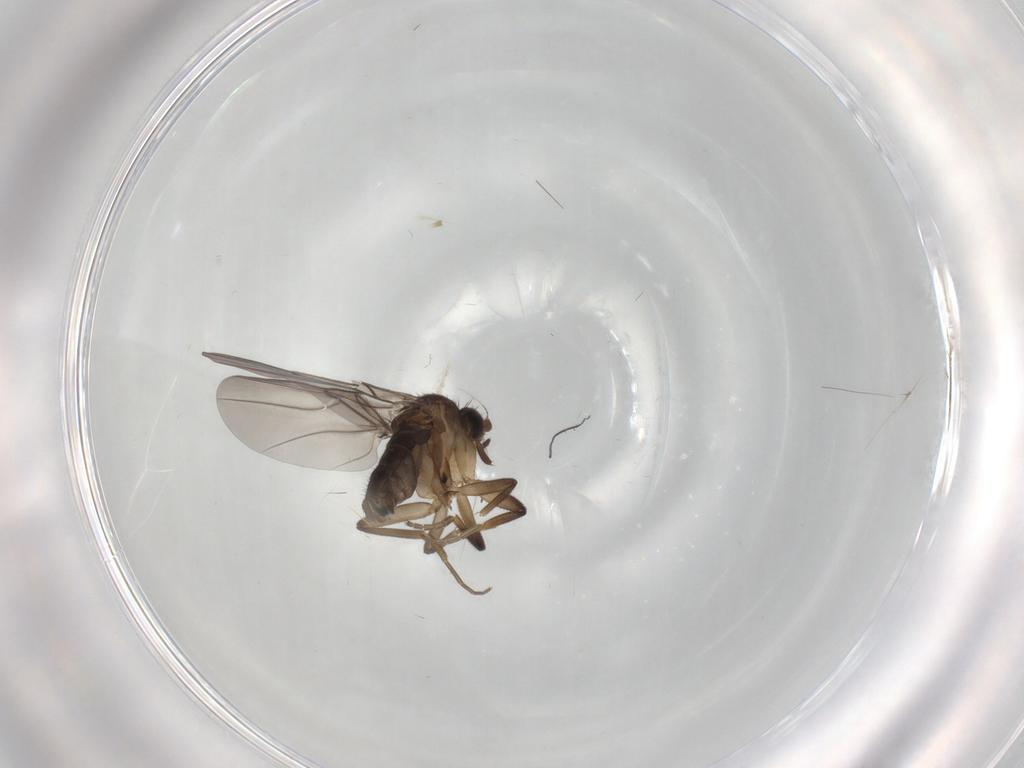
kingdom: Animalia
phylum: Arthropoda
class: Insecta
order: Diptera
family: Phoridae
